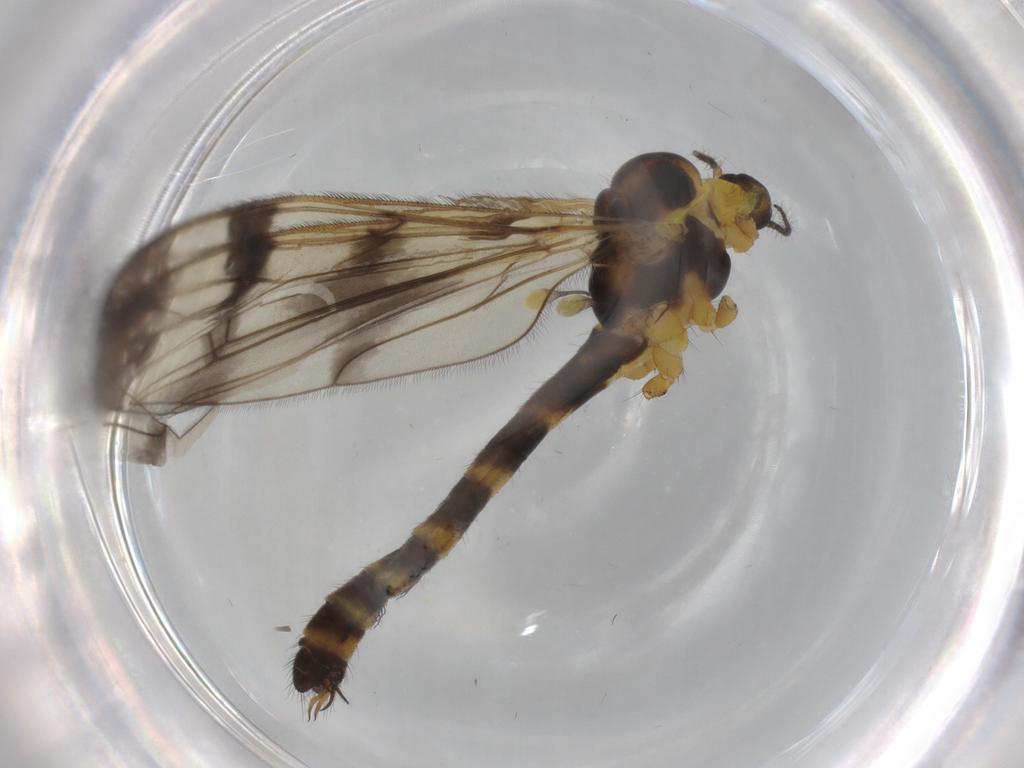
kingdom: Animalia
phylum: Arthropoda
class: Insecta
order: Diptera
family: Limoniidae
